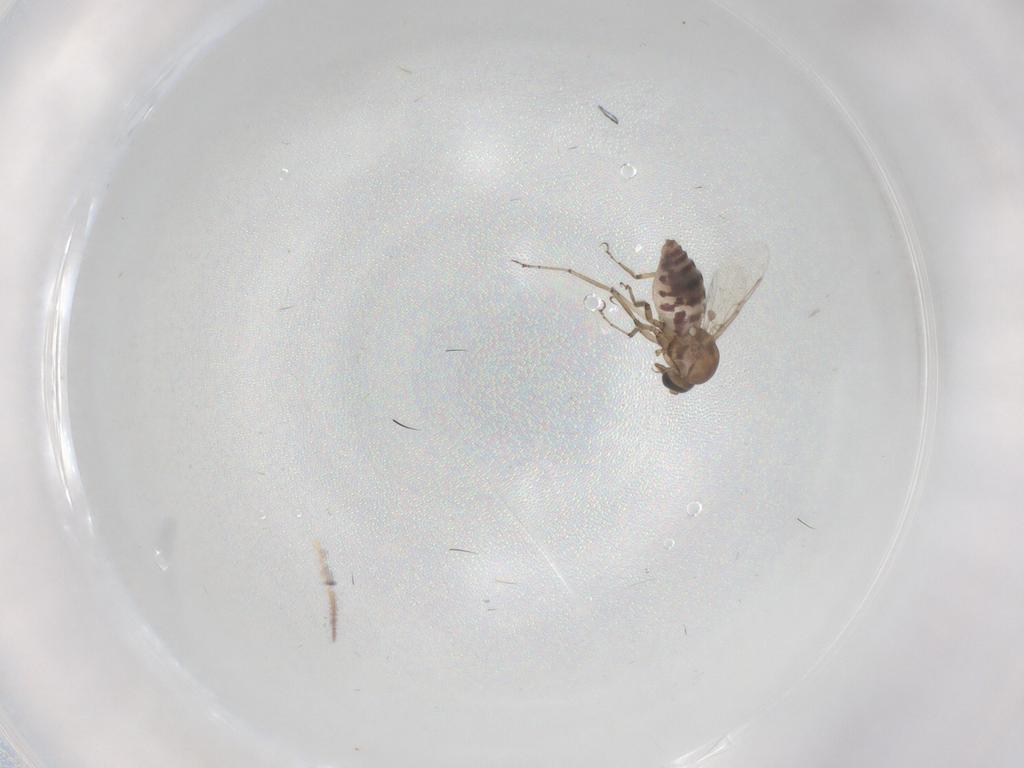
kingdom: Animalia
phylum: Arthropoda
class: Insecta
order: Diptera
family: Ceratopogonidae
